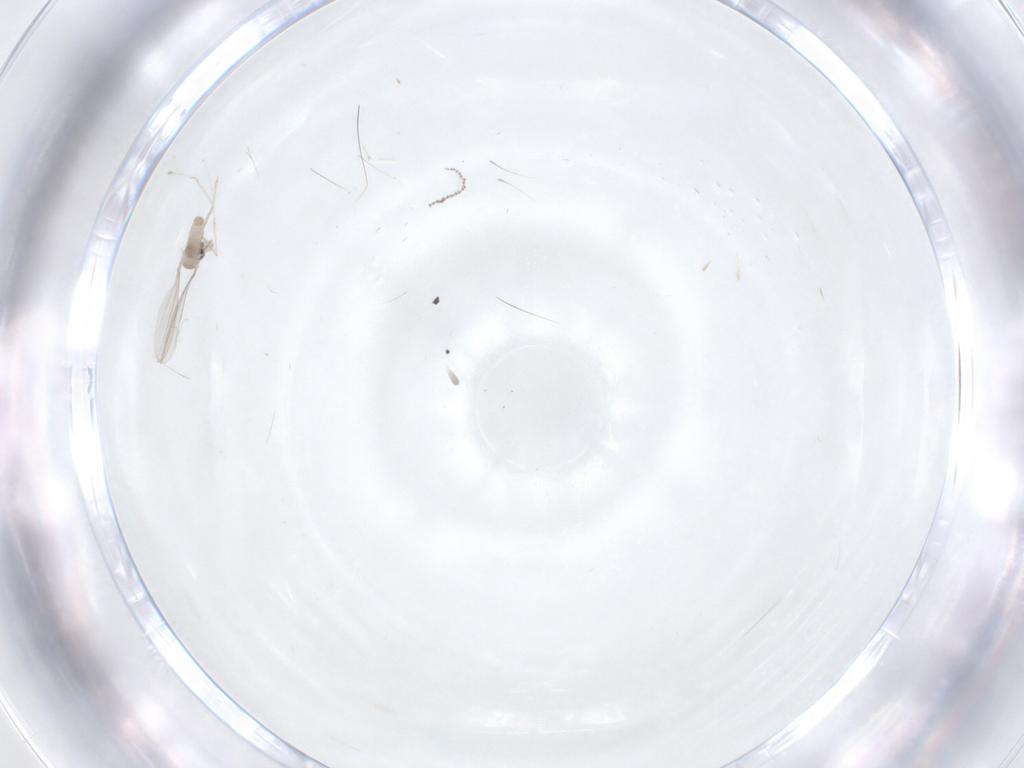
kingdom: Animalia
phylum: Arthropoda
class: Insecta
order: Diptera
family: Cecidomyiidae
